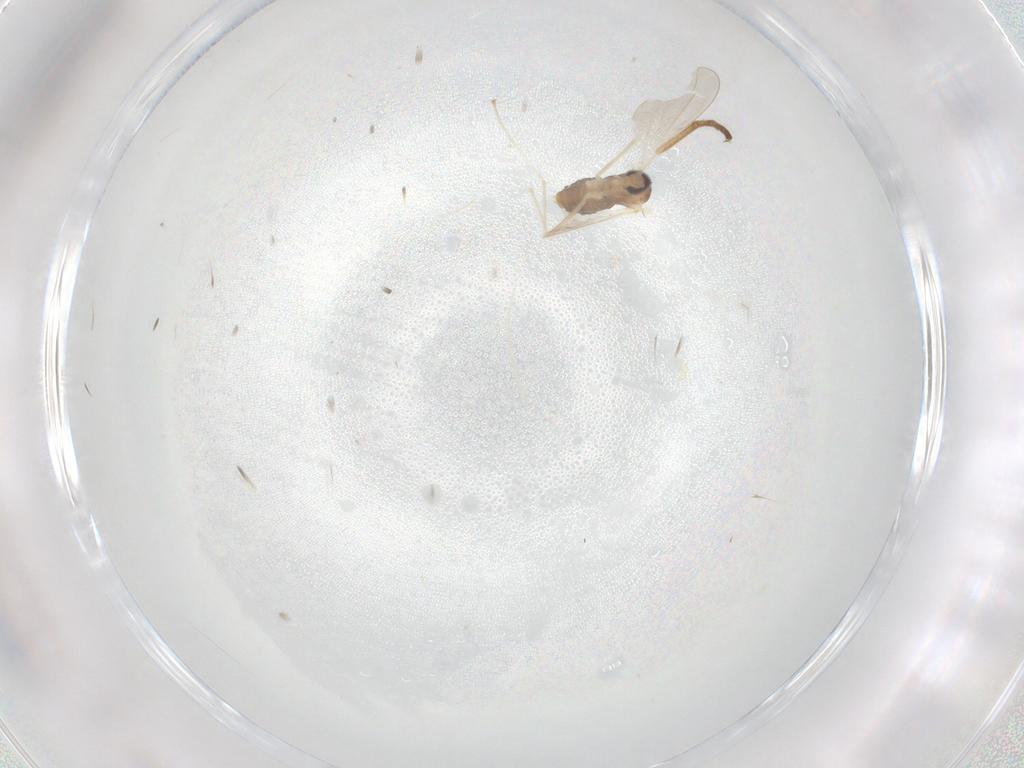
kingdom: Animalia
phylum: Arthropoda
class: Insecta
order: Diptera
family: Cecidomyiidae
